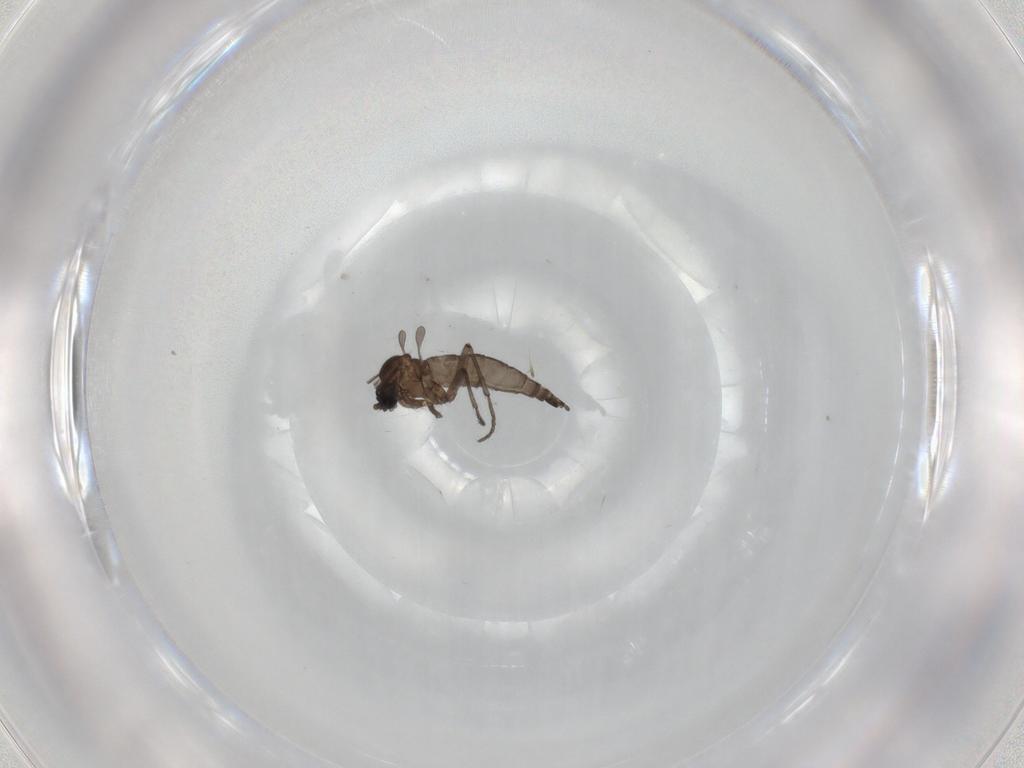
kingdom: Animalia
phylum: Arthropoda
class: Insecta
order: Diptera
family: Sciaridae
